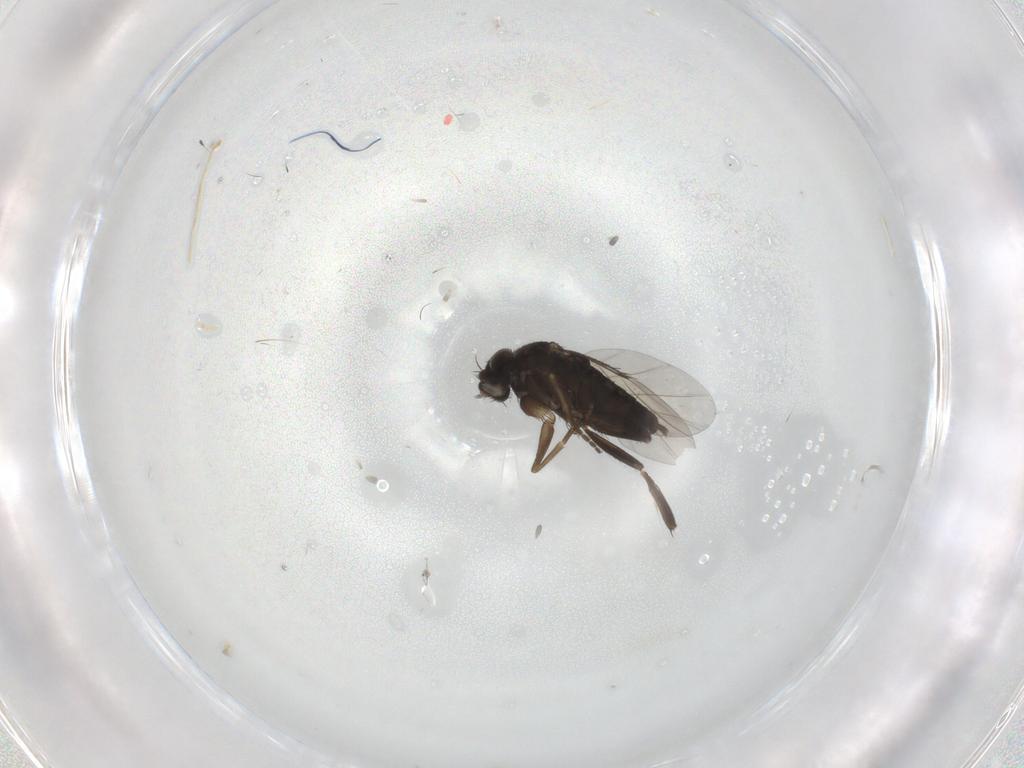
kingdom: Animalia
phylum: Arthropoda
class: Insecta
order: Diptera
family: Phoridae
